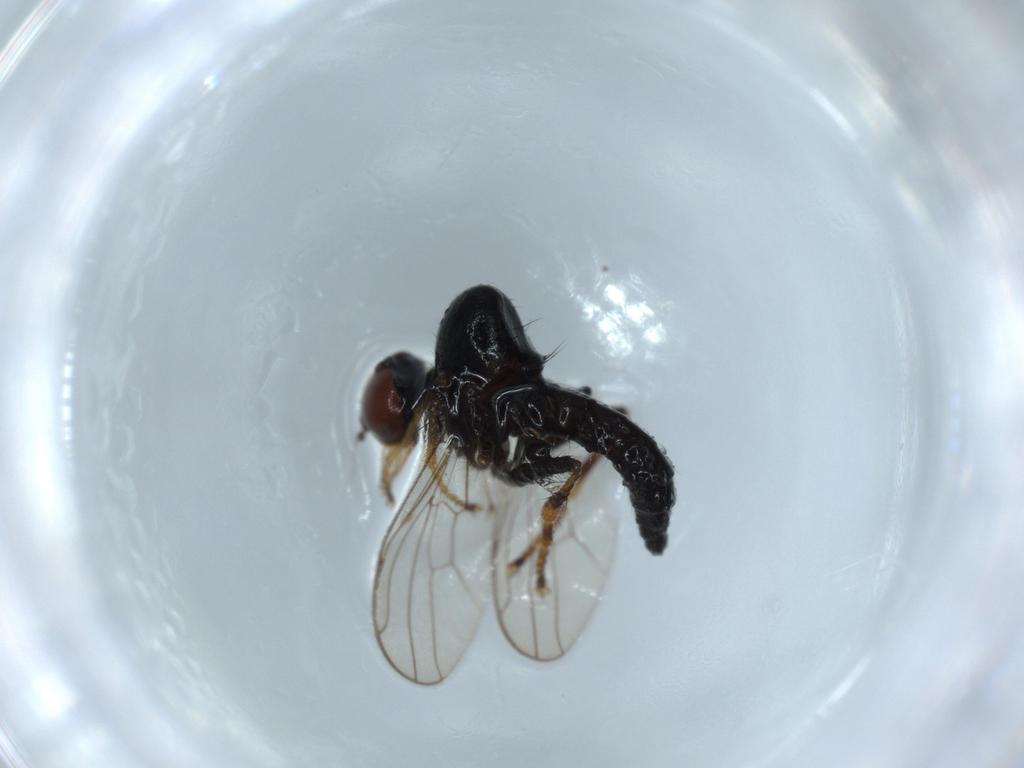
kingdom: Animalia
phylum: Arthropoda
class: Insecta
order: Diptera
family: Hybotidae
